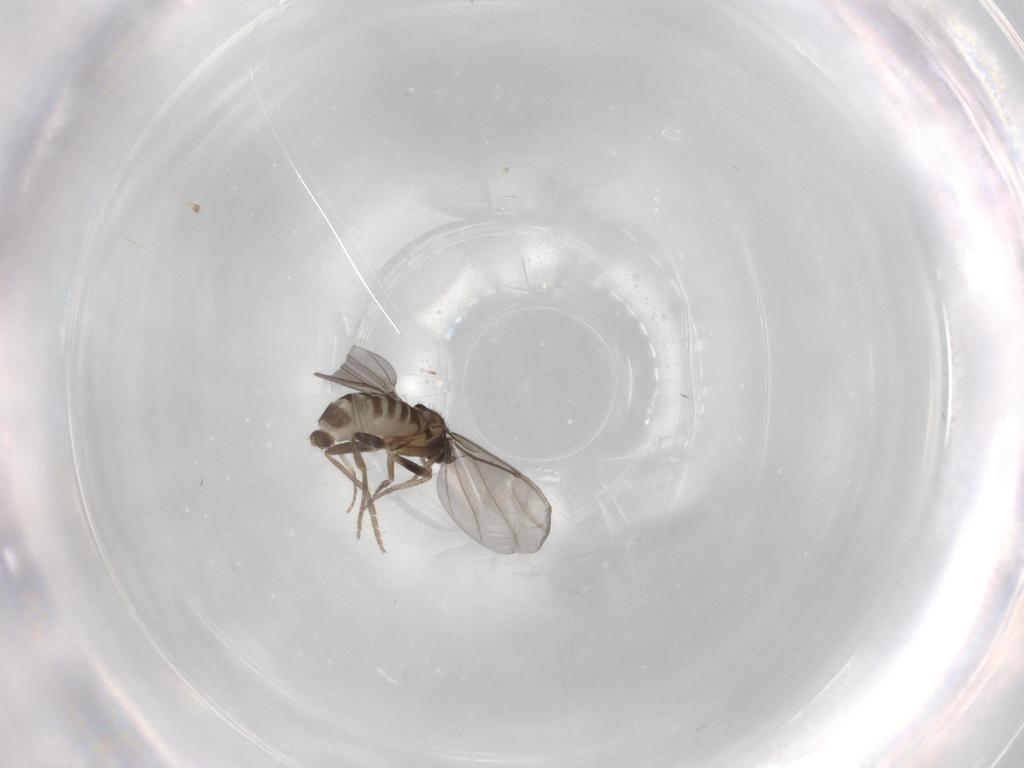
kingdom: Animalia
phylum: Arthropoda
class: Insecta
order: Diptera
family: Phoridae
